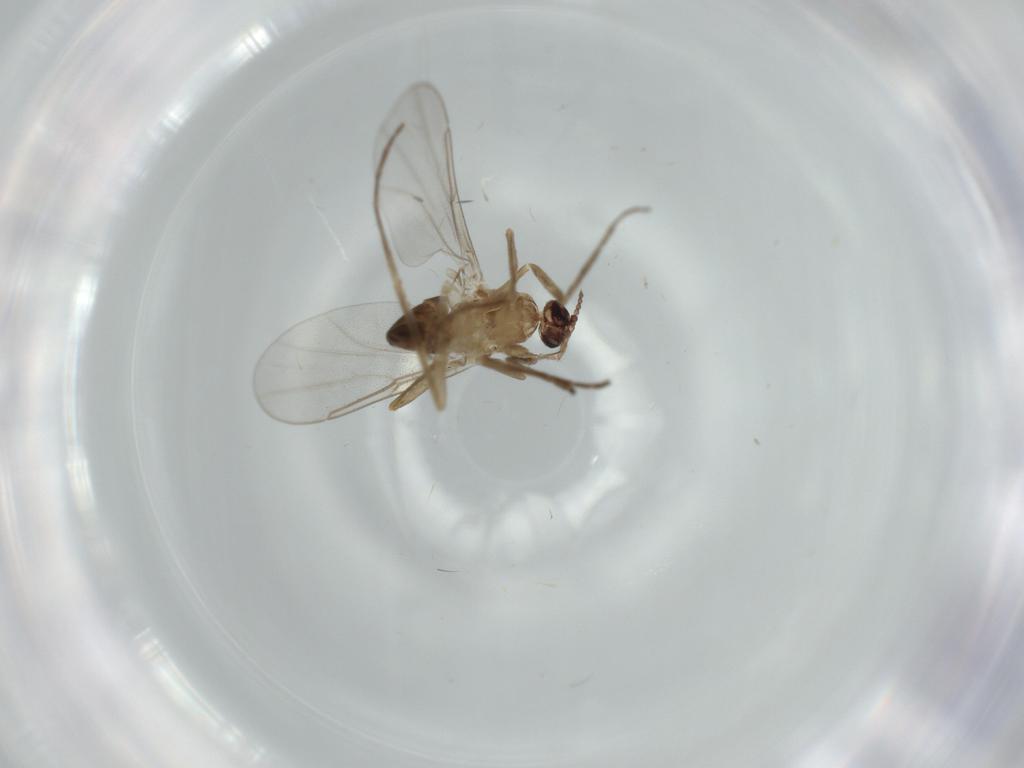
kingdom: Animalia
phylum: Arthropoda
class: Insecta
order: Diptera
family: Cecidomyiidae
